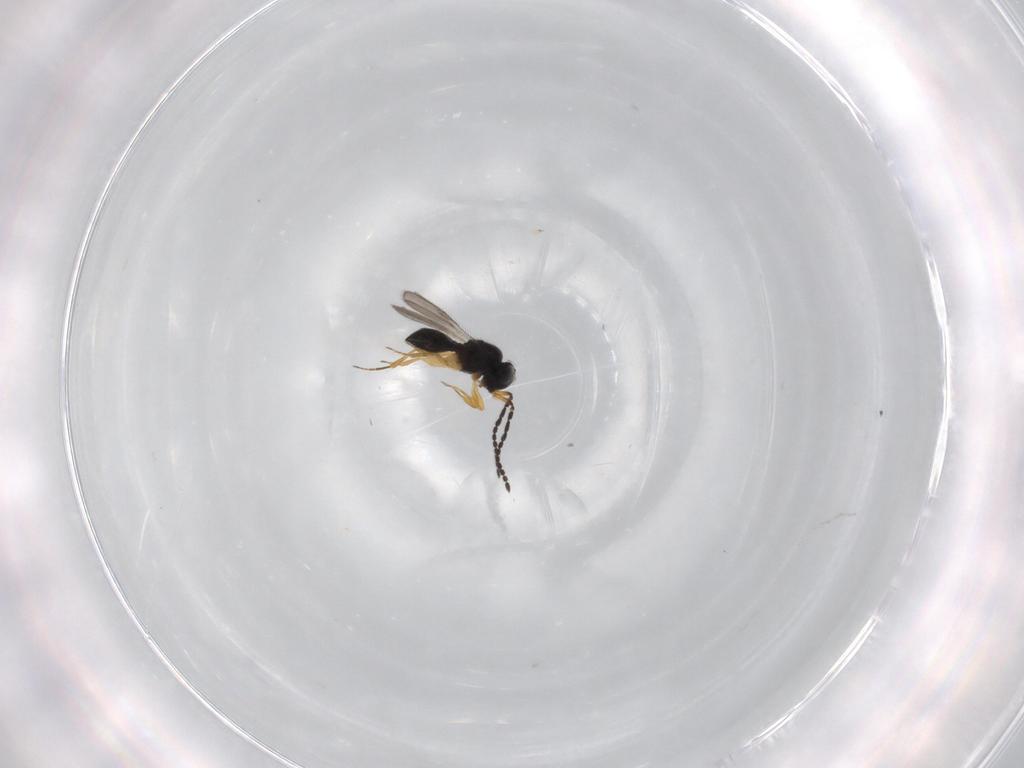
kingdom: Animalia
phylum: Arthropoda
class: Insecta
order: Hymenoptera
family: Scelionidae
